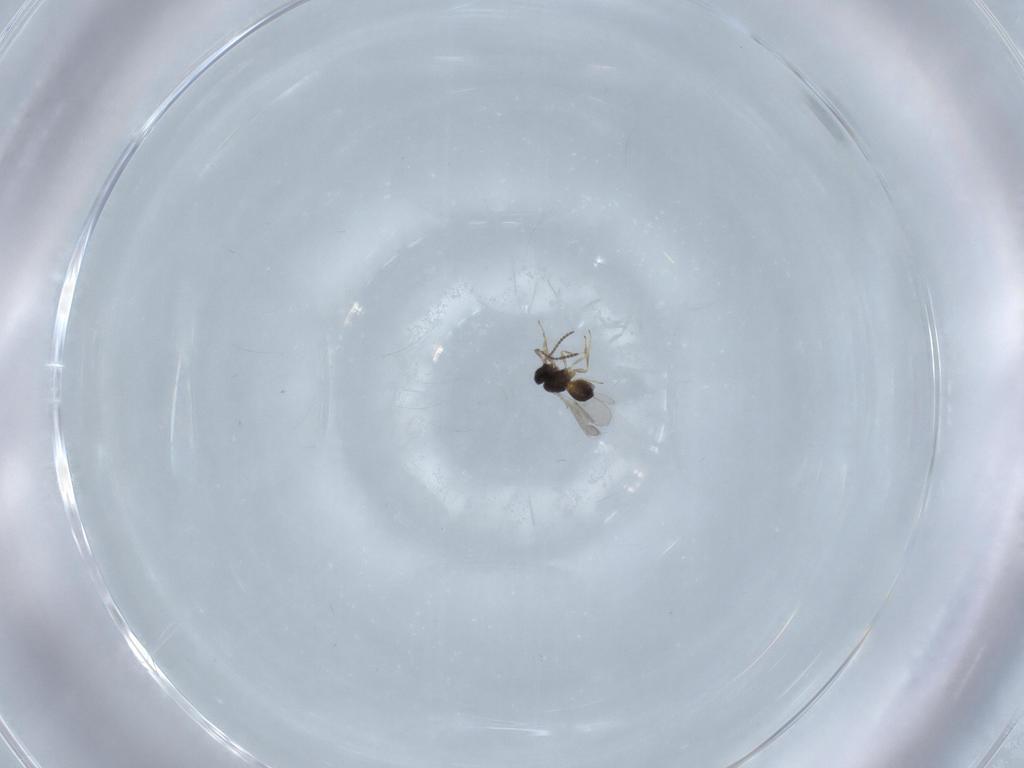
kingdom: Animalia
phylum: Arthropoda
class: Insecta
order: Hymenoptera
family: Scelionidae
